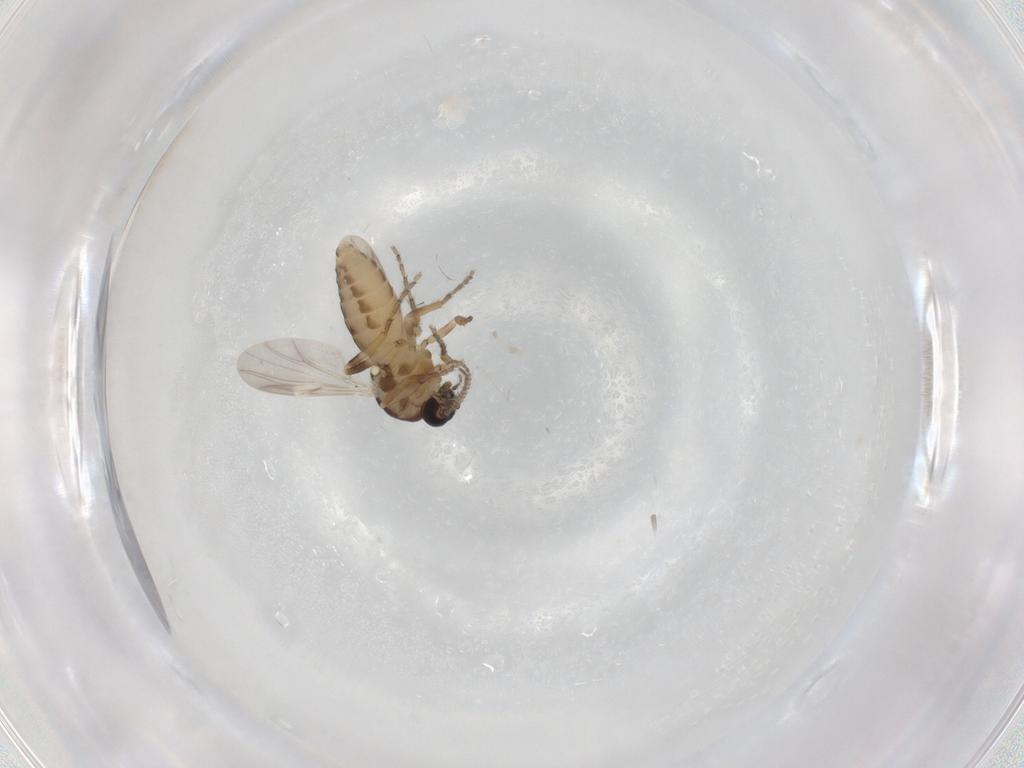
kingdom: Animalia
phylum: Arthropoda
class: Insecta
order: Diptera
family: Ceratopogonidae
